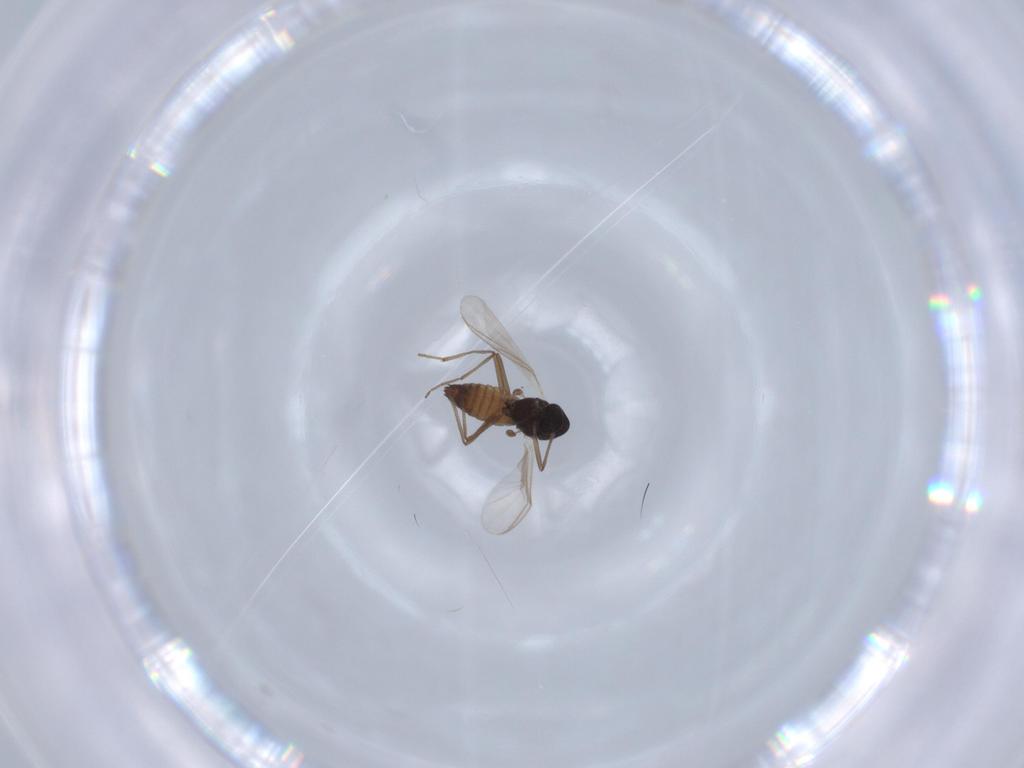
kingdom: Animalia
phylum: Arthropoda
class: Insecta
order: Diptera
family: Chironomidae
